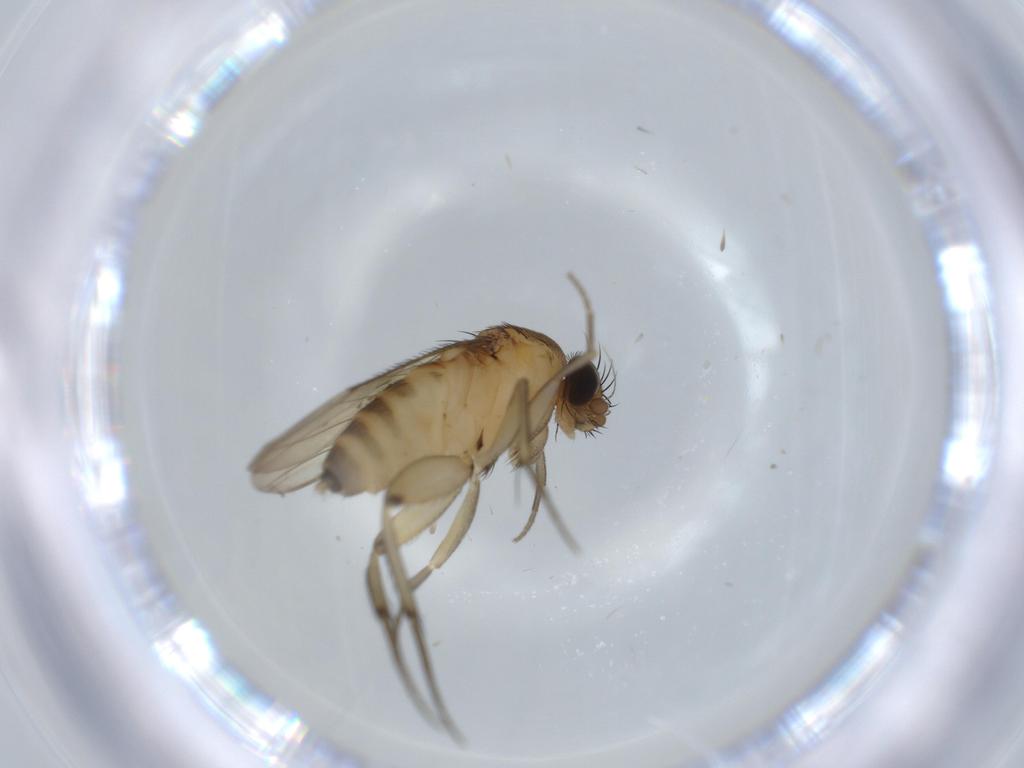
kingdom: Animalia
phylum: Arthropoda
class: Insecta
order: Diptera
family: Phoridae
